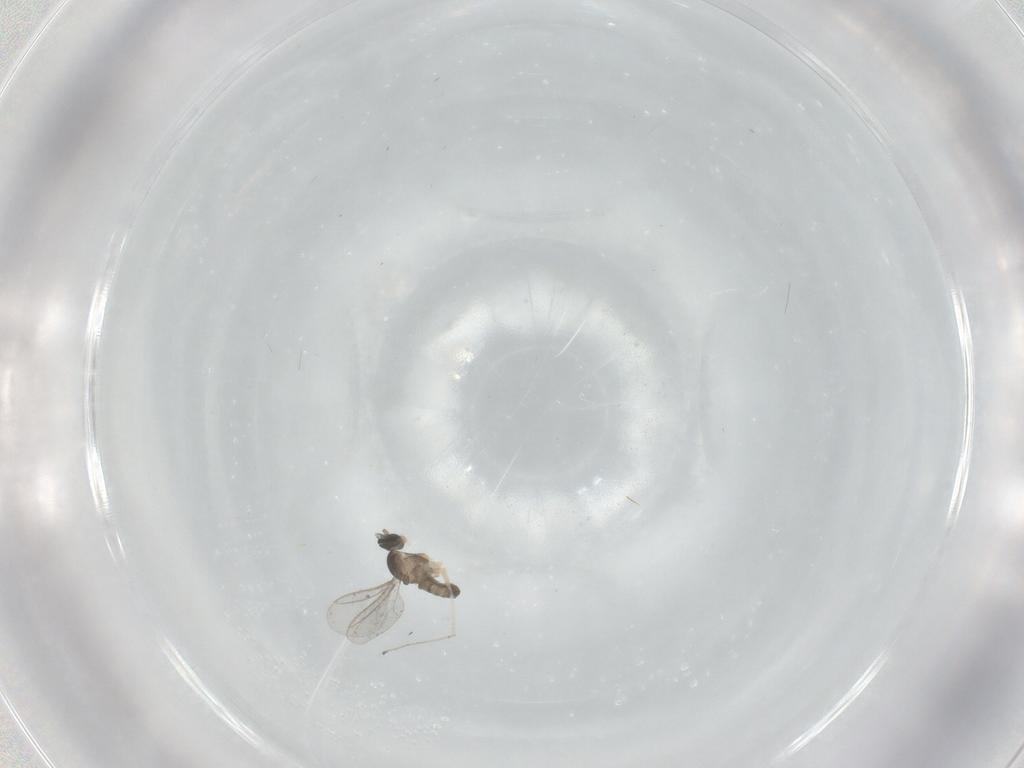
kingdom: Animalia
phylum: Arthropoda
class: Insecta
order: Diptera
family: Cecidomyiidae
